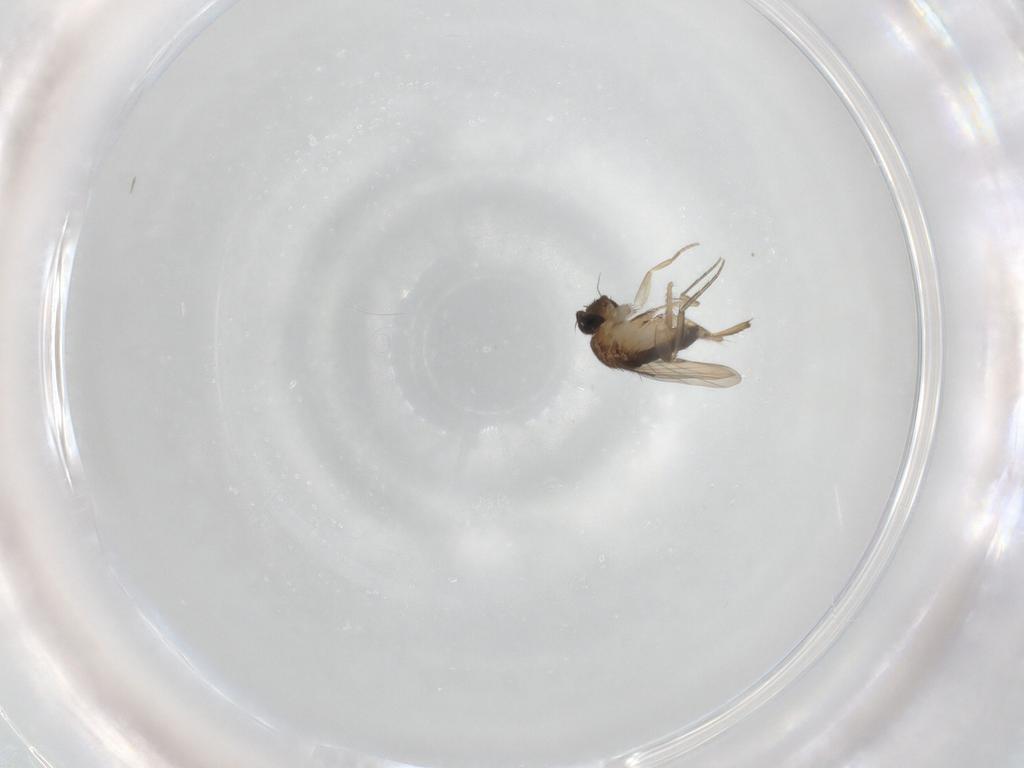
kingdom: Animalia
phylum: Arthropoda
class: Insecta
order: Diptera
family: Phoridae
